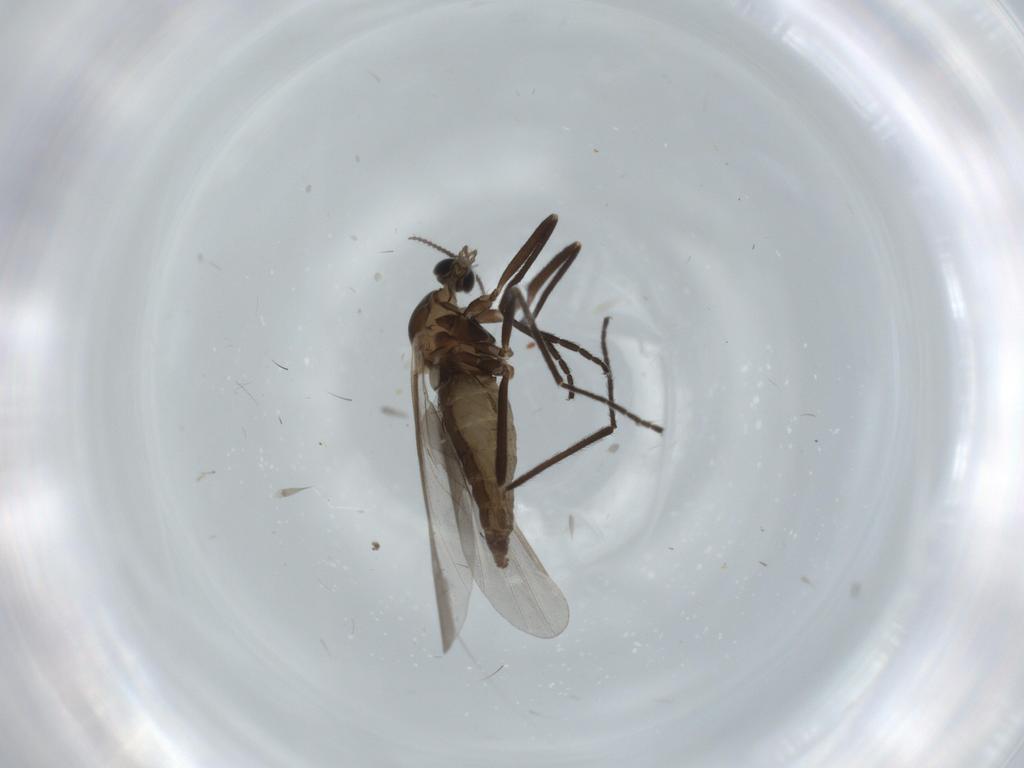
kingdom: Animalia
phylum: Arthropoda
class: Insecta
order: Diptera
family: Cecidomyiidae
